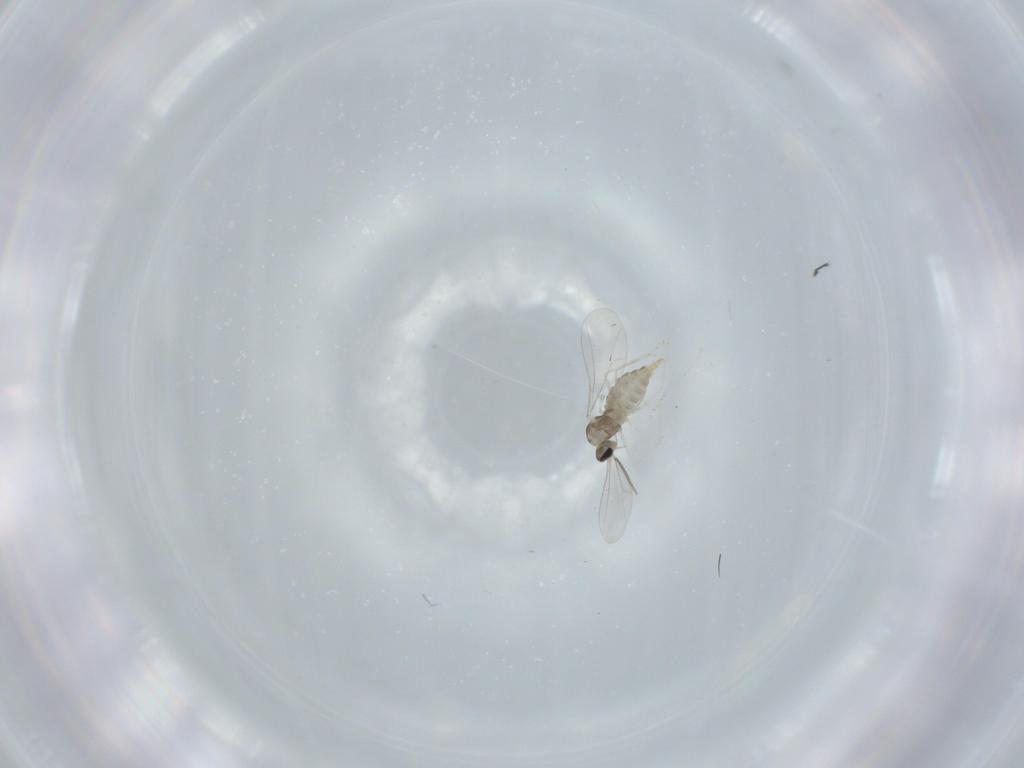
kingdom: Animalia
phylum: Arthropoda
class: Insecta
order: Diptera
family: Cecidomyiidae
